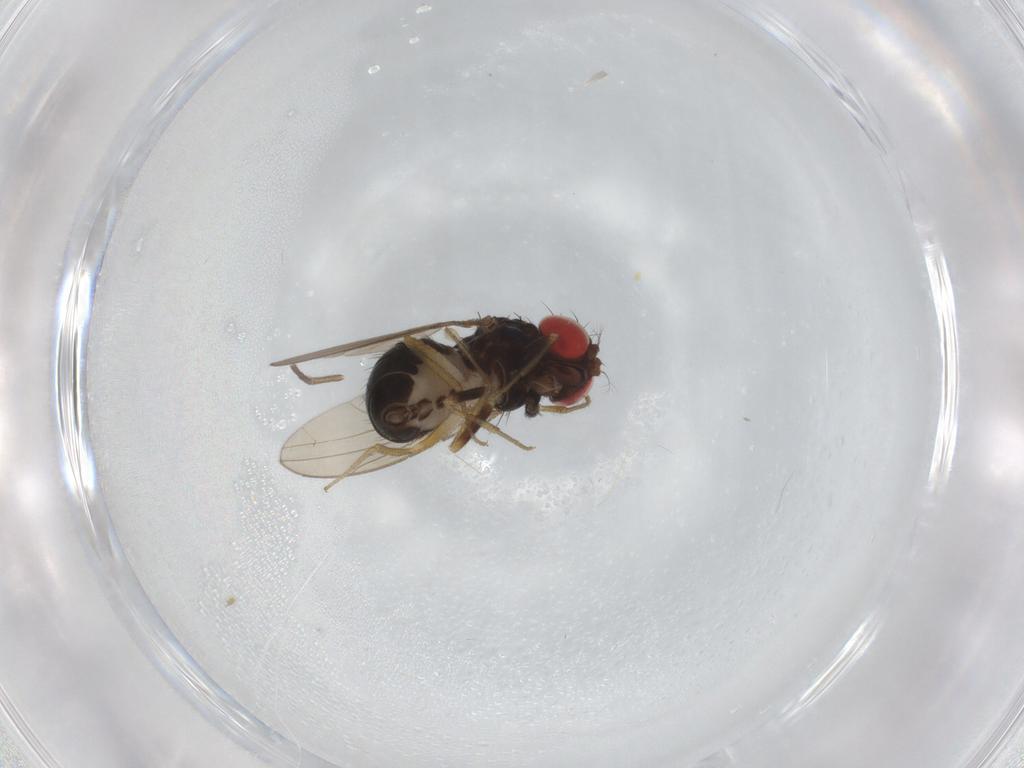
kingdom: Animalia
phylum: Arthropoda
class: Insecta
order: Diptera
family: Drosophilidae
